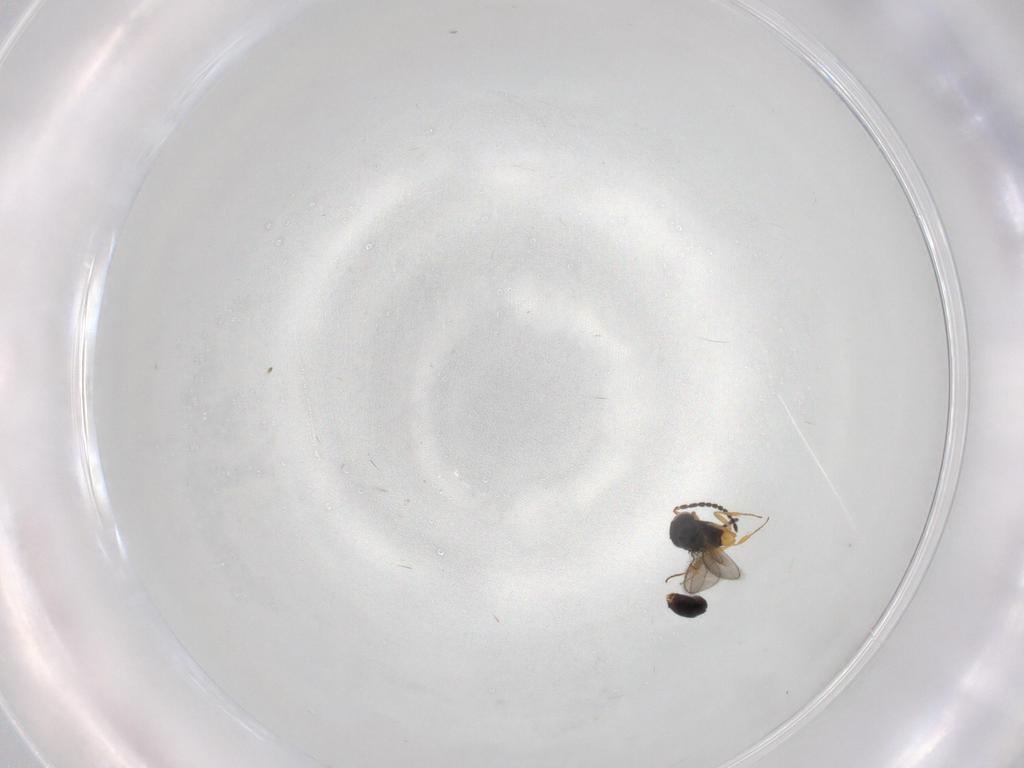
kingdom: Animalia
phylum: Arthropoda
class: Insecta
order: Hymenoptera
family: Scelionidae
